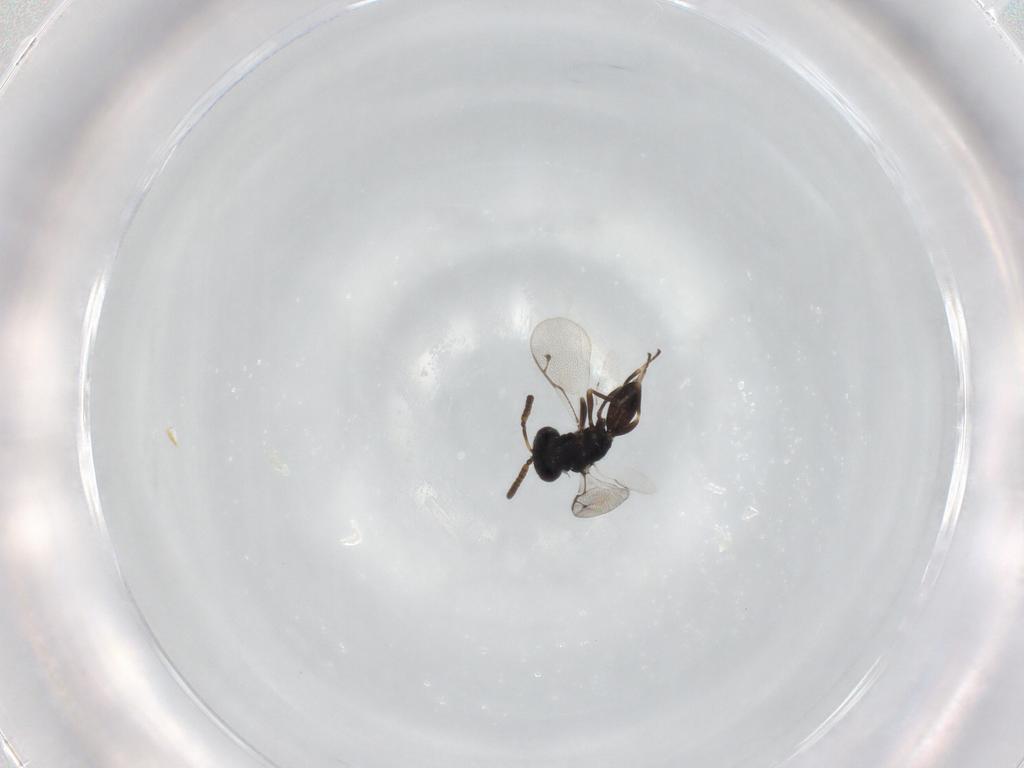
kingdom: Animalia
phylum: Arthropoda
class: Insecta
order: Hymenoptera
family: Pteromalidae
